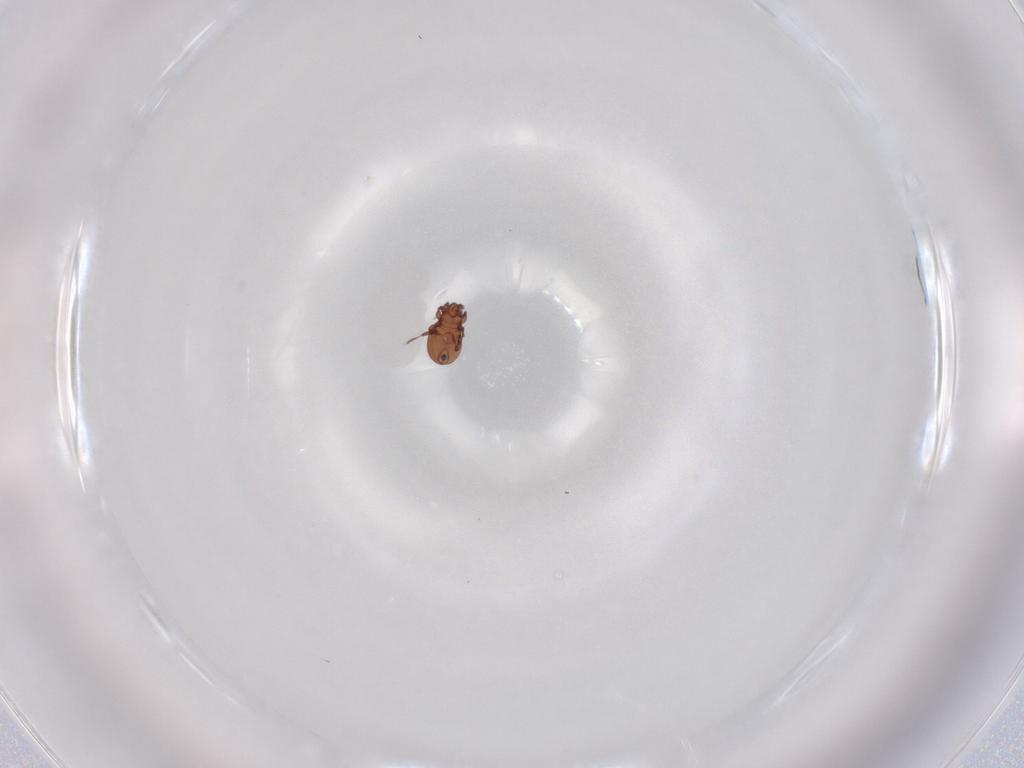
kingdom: Animalia
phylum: Arthropoda
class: Arachnida
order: Sarcoptiformes
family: Eremaeidae
